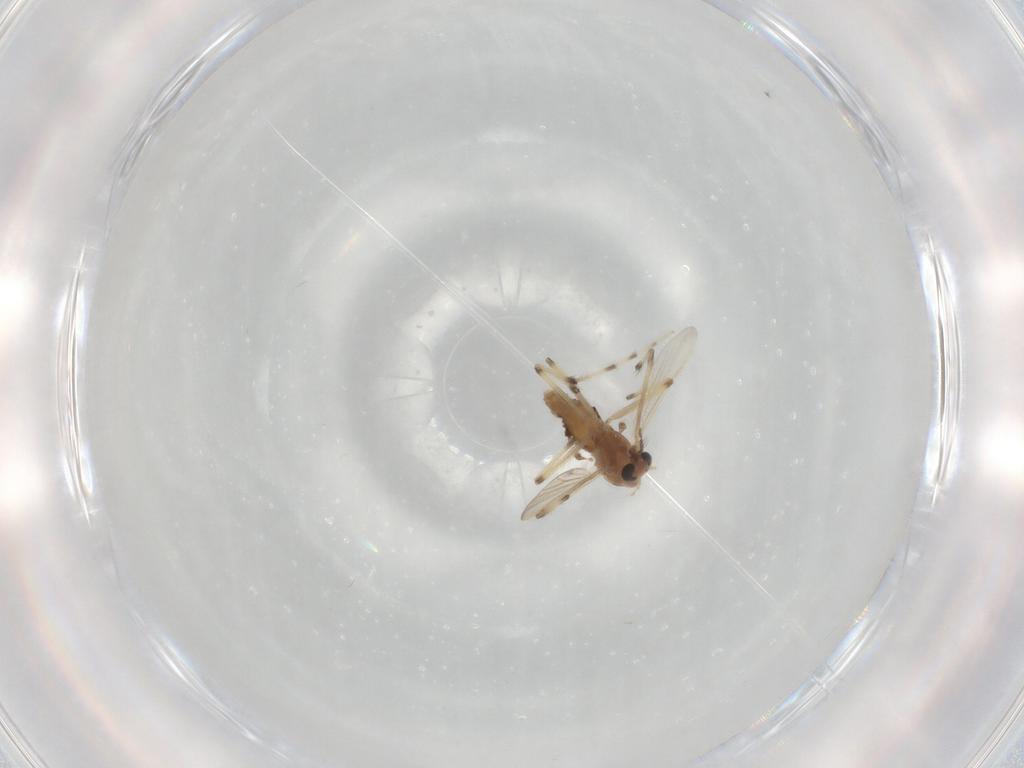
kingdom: Animalia
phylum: Arthropoda
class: Insecta
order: Diptera
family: Chironomidae
